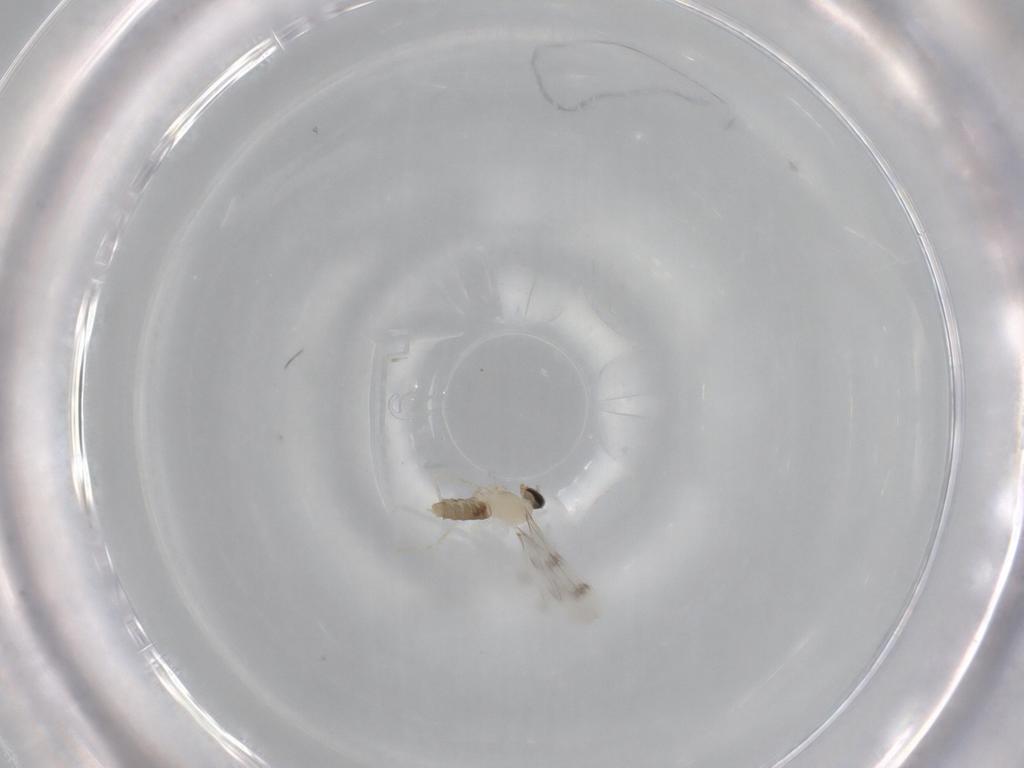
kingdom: Animalia
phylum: Arthropoda
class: Insecta
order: Diptera
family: Cecidomyiidae
